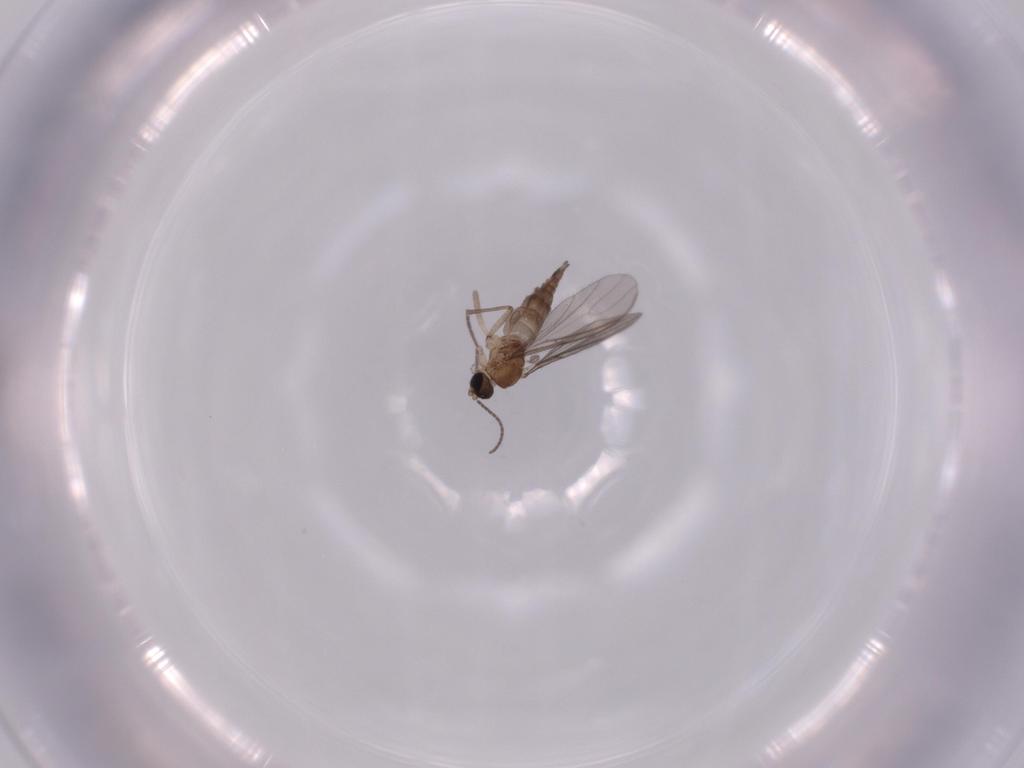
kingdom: Animalia
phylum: Arthropoda
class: Insecta
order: Diptera
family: Sciaridae
